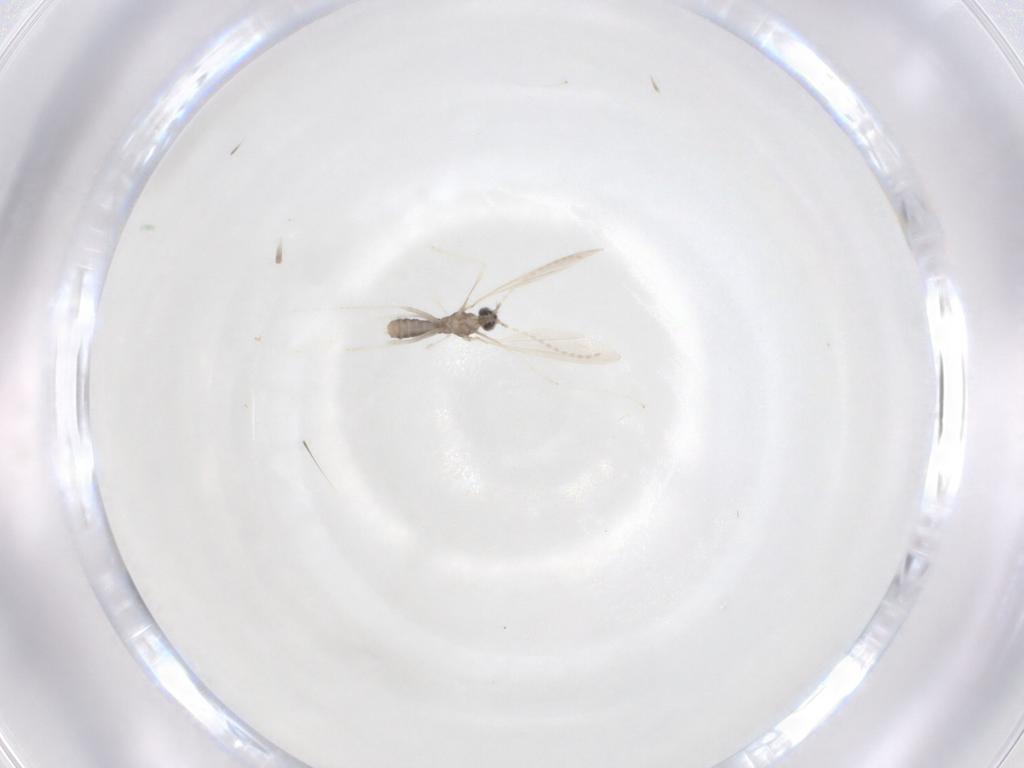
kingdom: Animalia
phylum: Arthropoda
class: Insecta
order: Diptera
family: Cecidomyiidae
